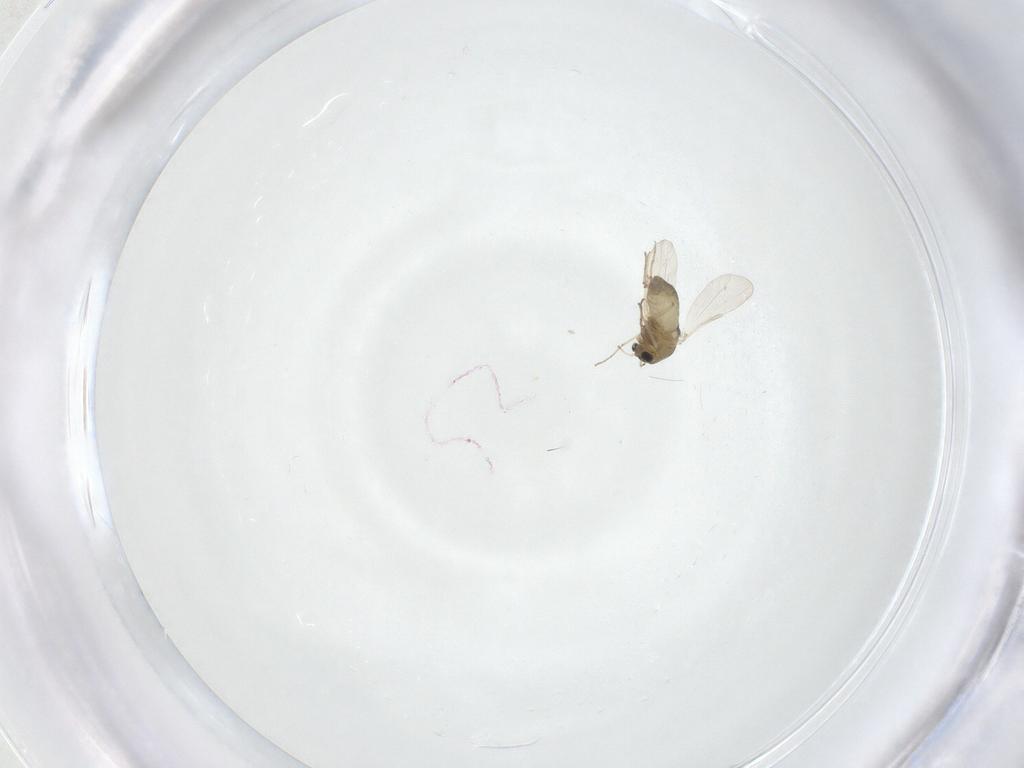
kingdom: Animalia
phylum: Arthropoda
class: Insecta
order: Diptera
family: Chironomidae
